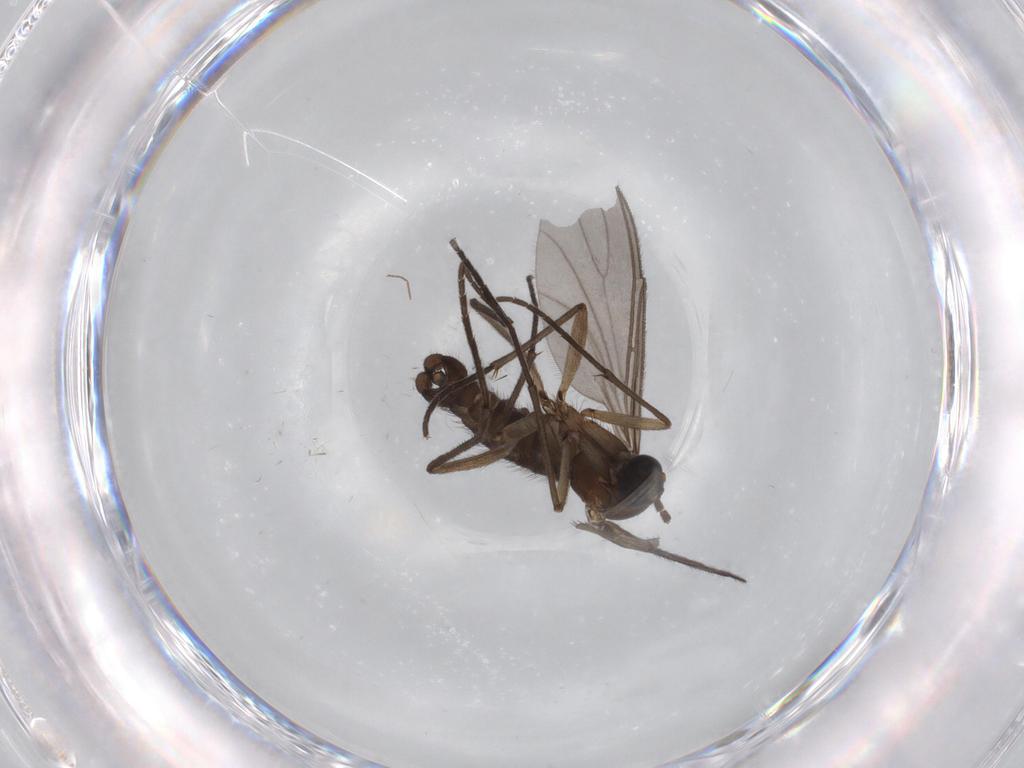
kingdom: Animalia
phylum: Arthropoda
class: Insecta
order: Diptera
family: Sciaridae
